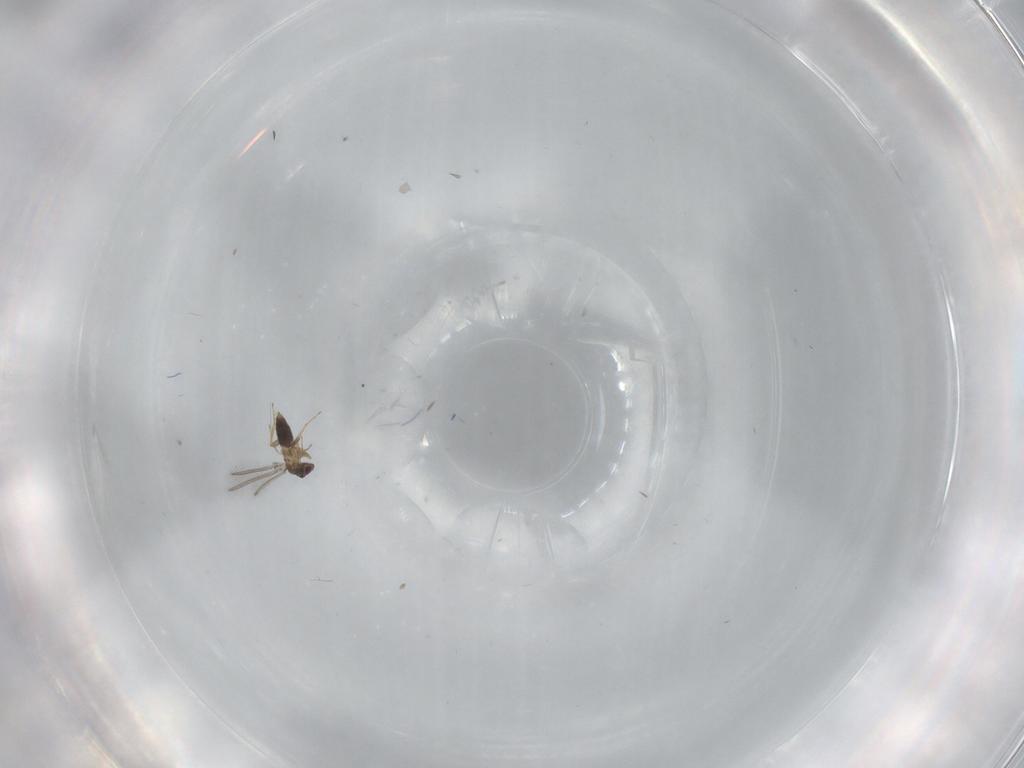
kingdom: Animalia
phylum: Arthropoda
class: Insecta
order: Hymenoptera
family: Mymaridae
